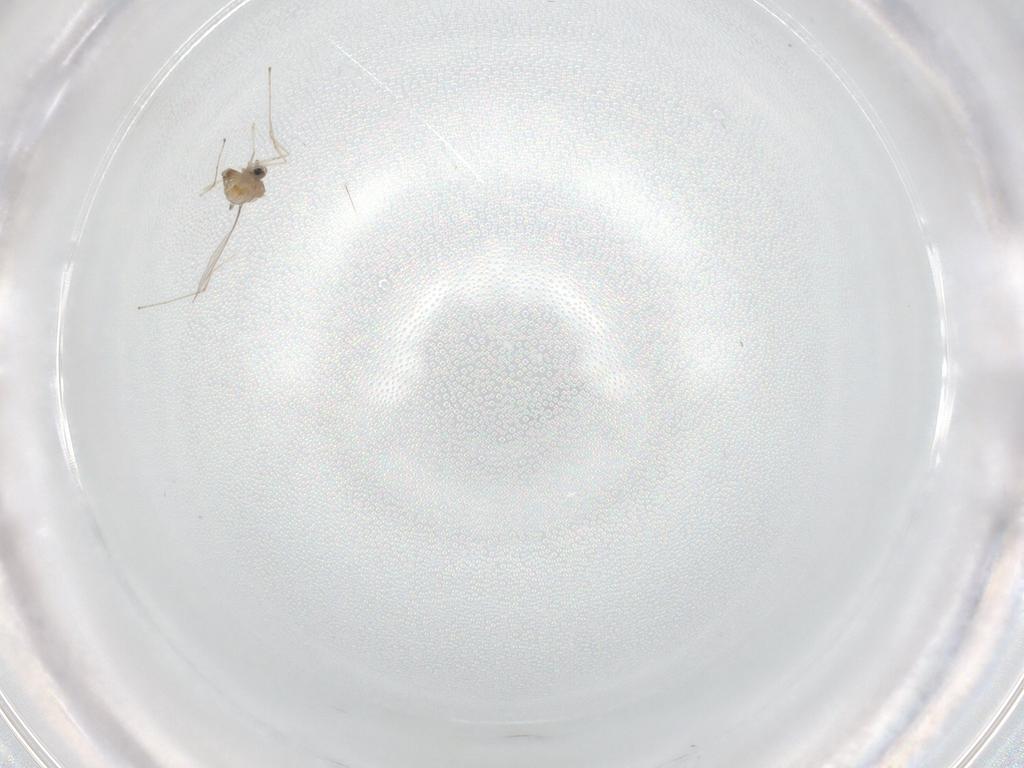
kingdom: Animalia
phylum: Arthropoda
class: Insecta
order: Diptera
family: Cecidomyiidae
